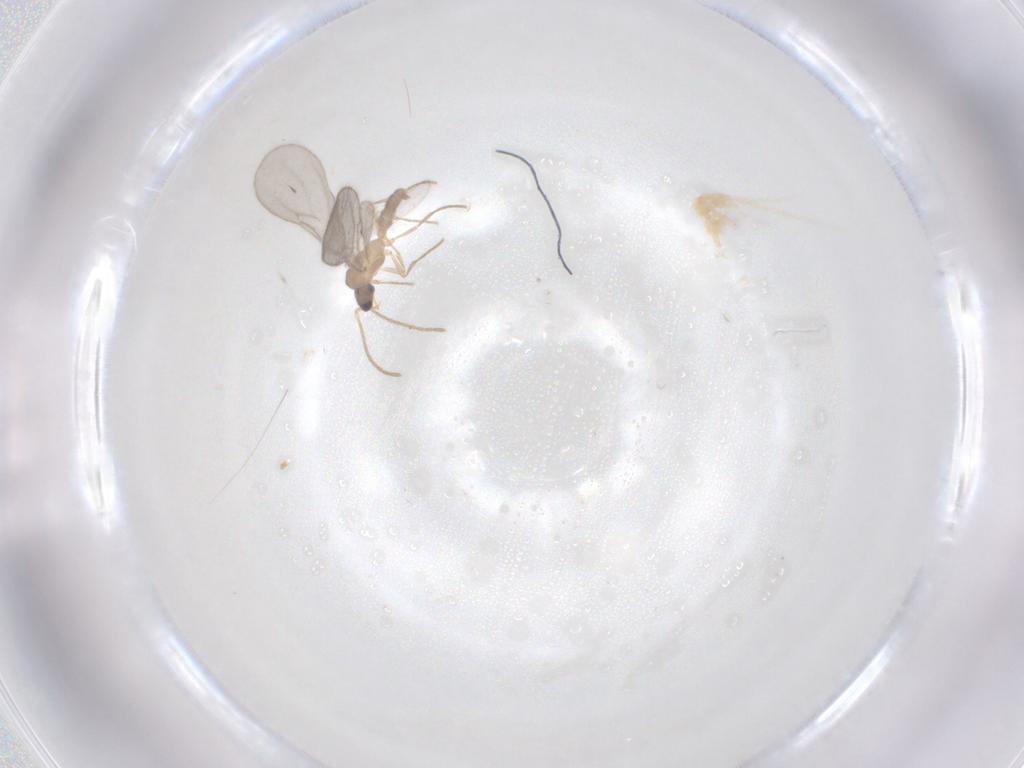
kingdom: Animalia
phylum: Arthropoda
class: Insecta
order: Hymenoptera
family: Formicidae
